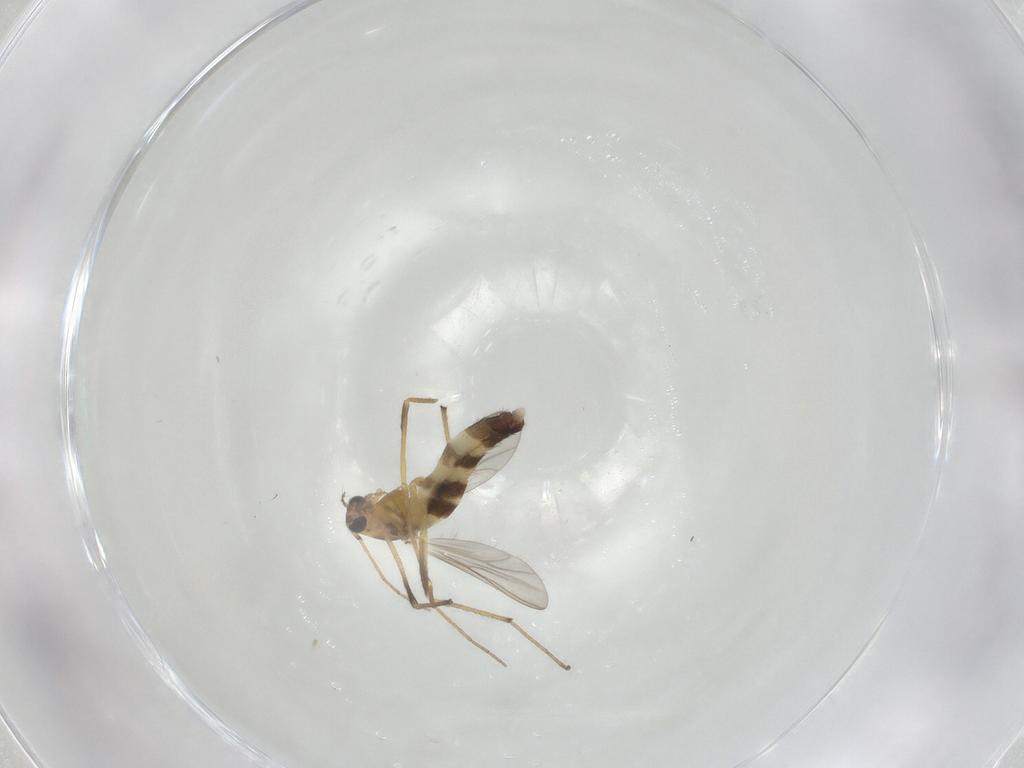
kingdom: Animalia
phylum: Arthropoda
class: Insecta
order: Diptera
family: Chironomidae
